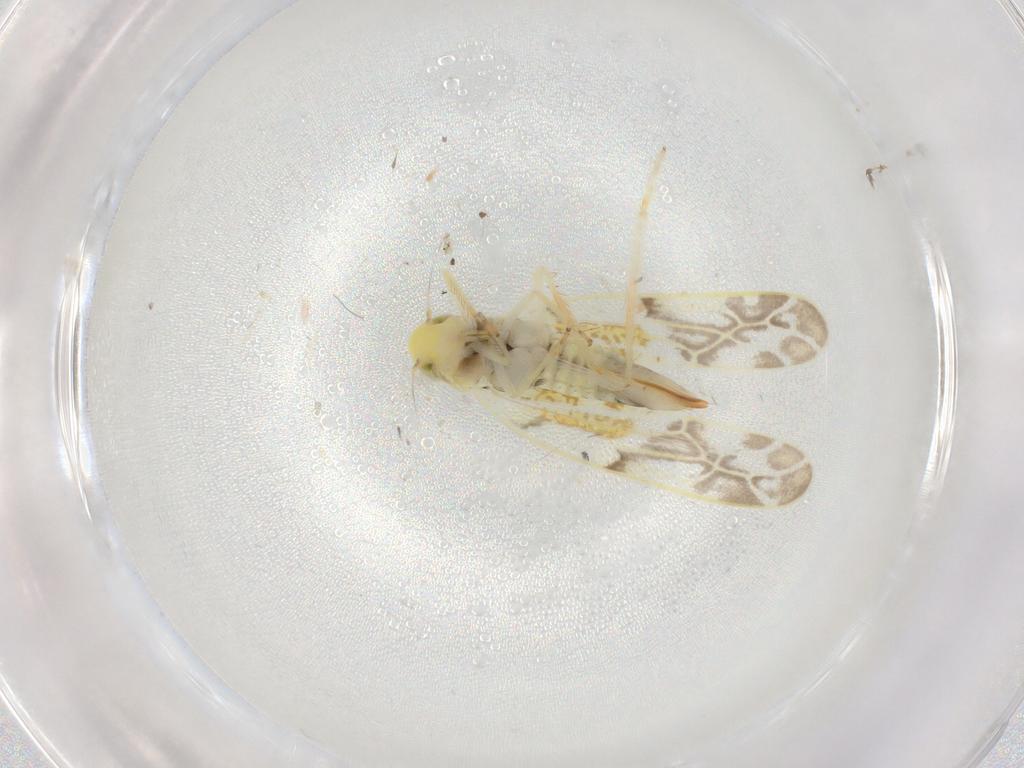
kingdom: Animalia
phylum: Arthropoda
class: Insecta
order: Hemiptera
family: Cicadellidae
